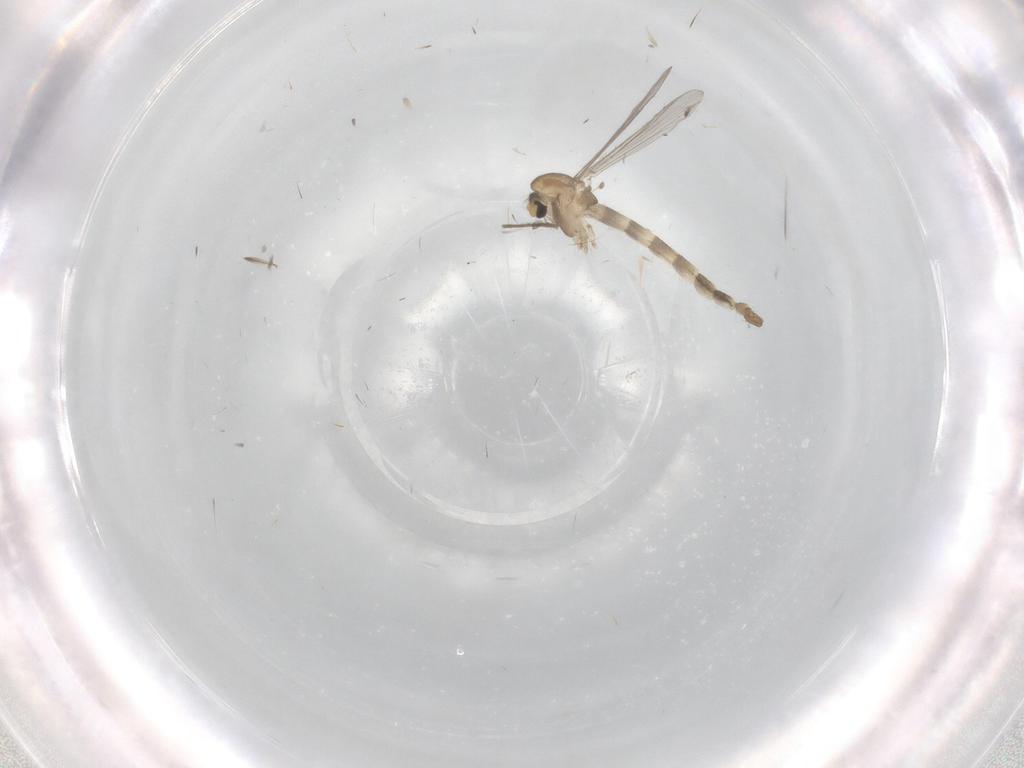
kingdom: Animalia
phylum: Arthropoda
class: Insecta
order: Diptera
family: Chironomidae
